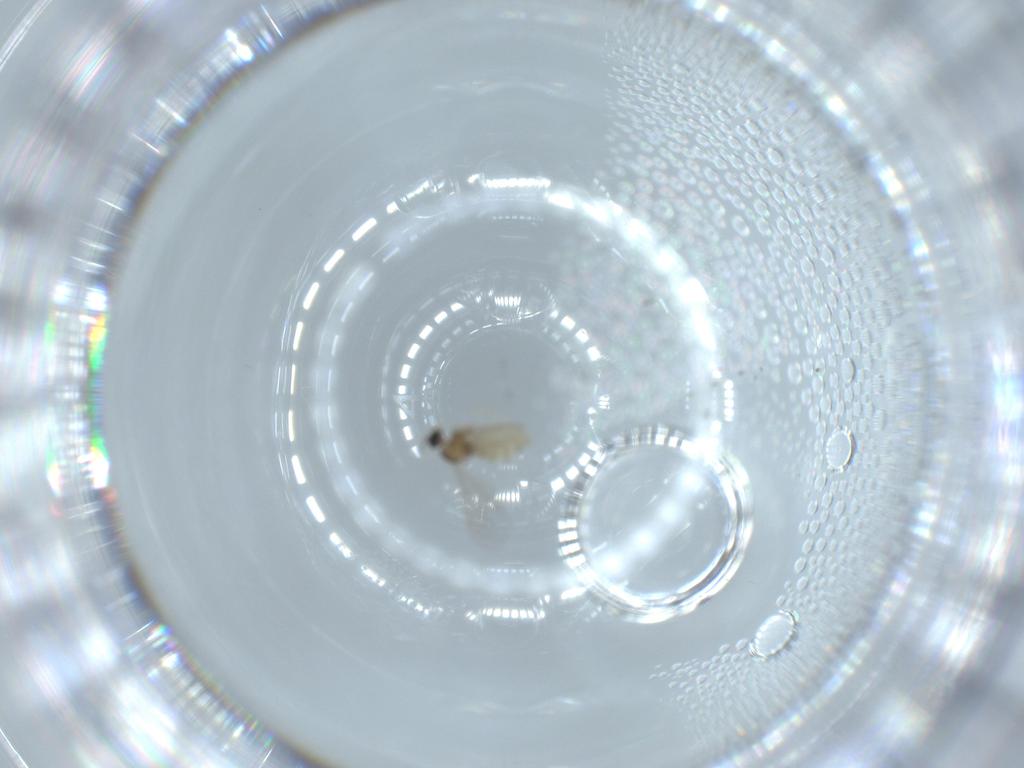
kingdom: Animalia
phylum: Arthropoda
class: Insecta
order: Diptera
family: Cecidomyiidae
